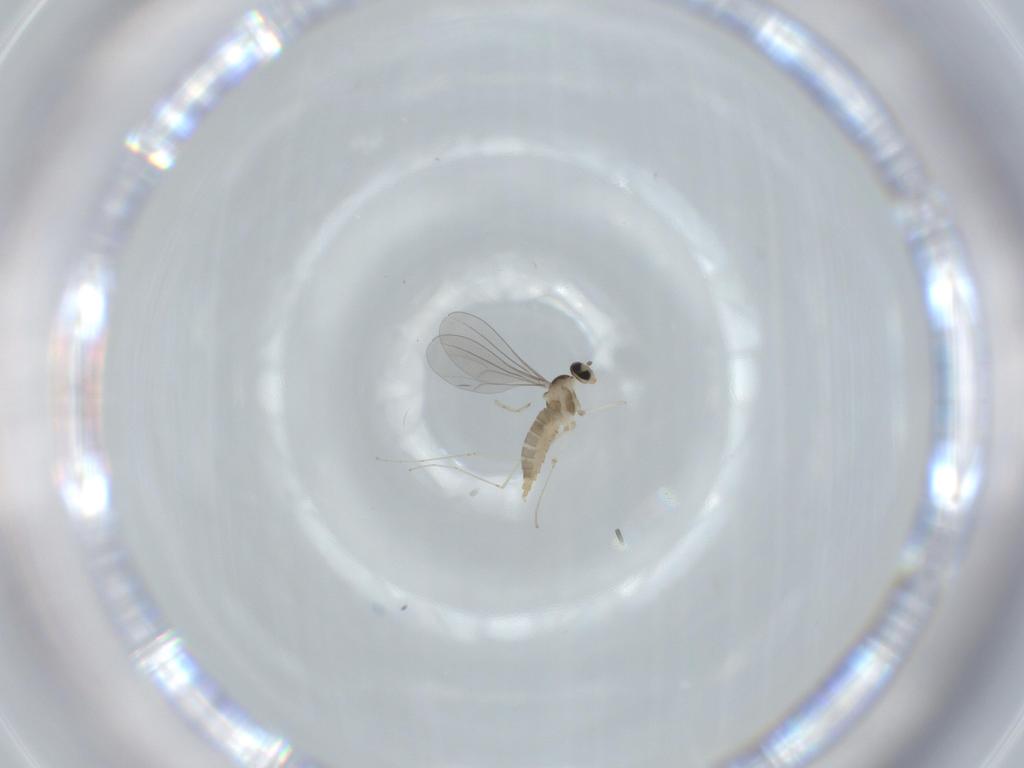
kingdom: Animalia
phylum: Arthropoda
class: Insecta
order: Diptera
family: Cecidomyiidae
